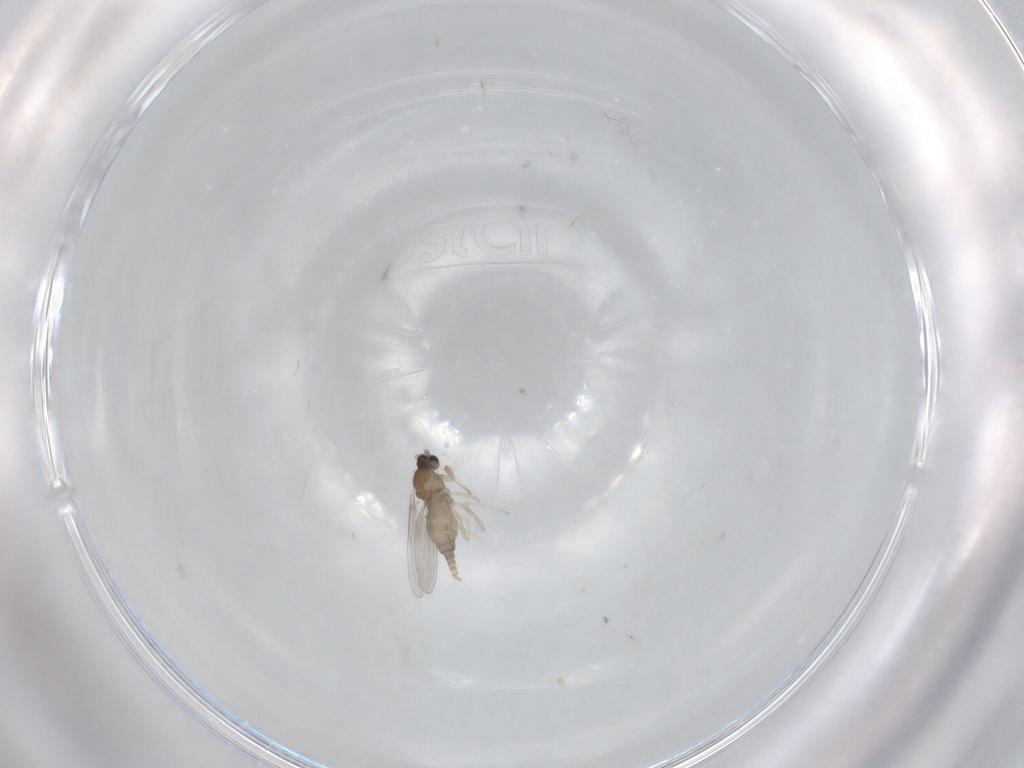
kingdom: Animalia
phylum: Arthropoda
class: Insecta
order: Diptera
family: Cecidomyiidae
